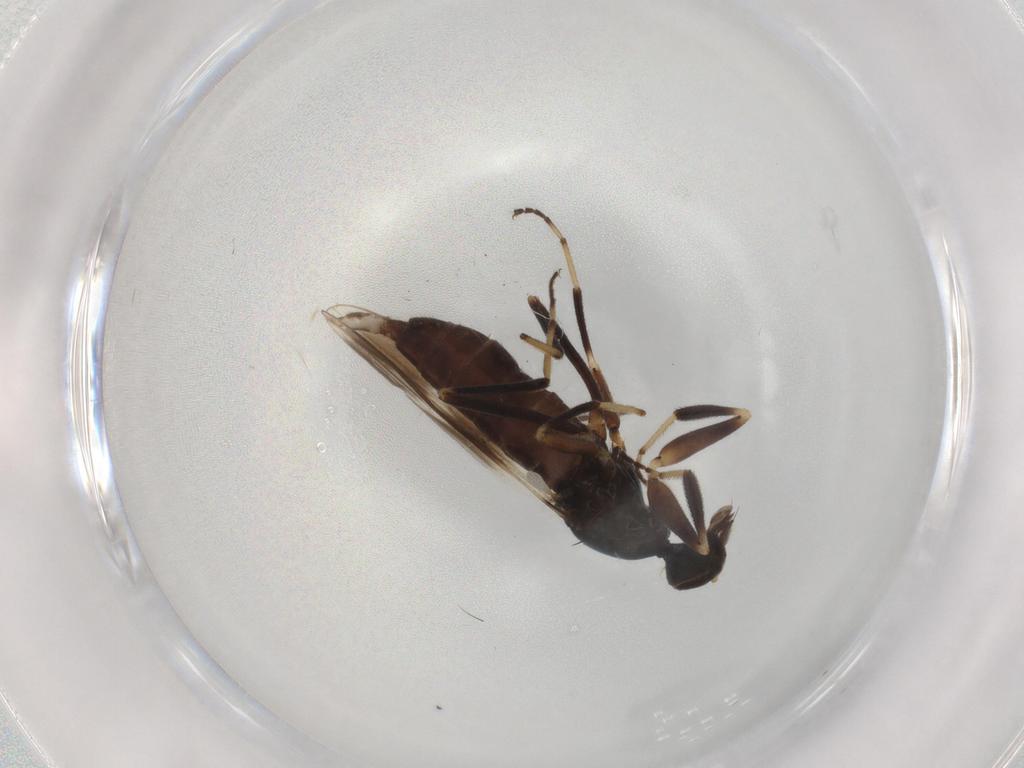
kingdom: Animalia
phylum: Arthropoda
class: Insecta
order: Diptera
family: Hybotidae
